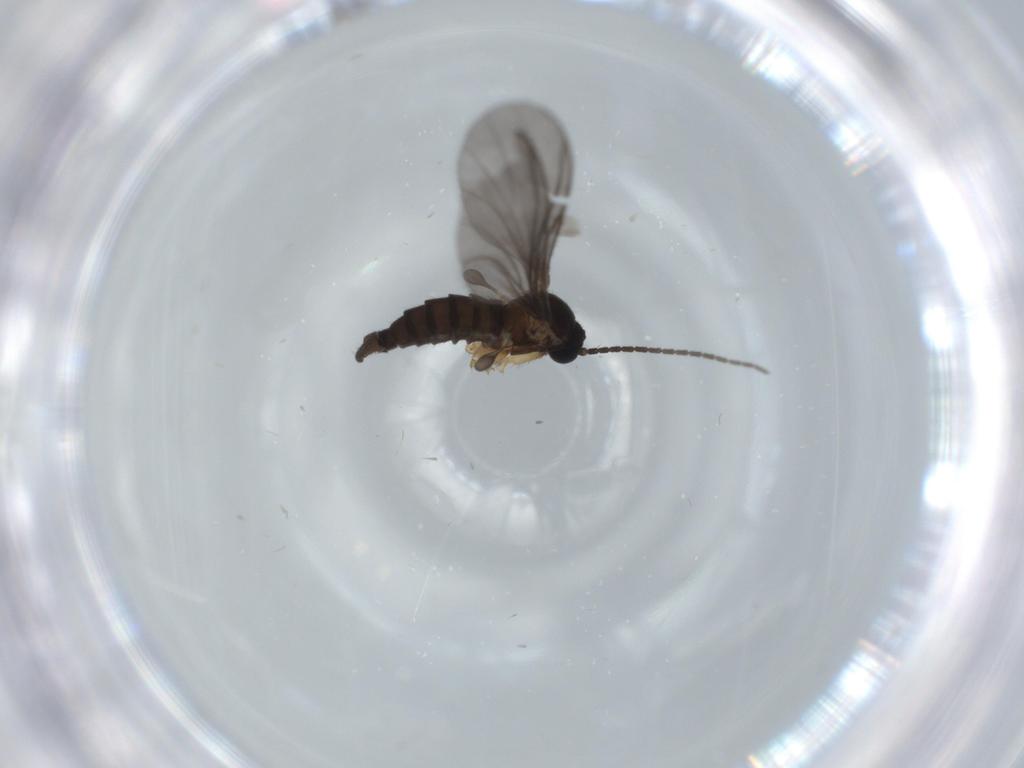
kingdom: Animalia
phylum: Arthropoda
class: Insecta
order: Diptera
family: Sciaridae
